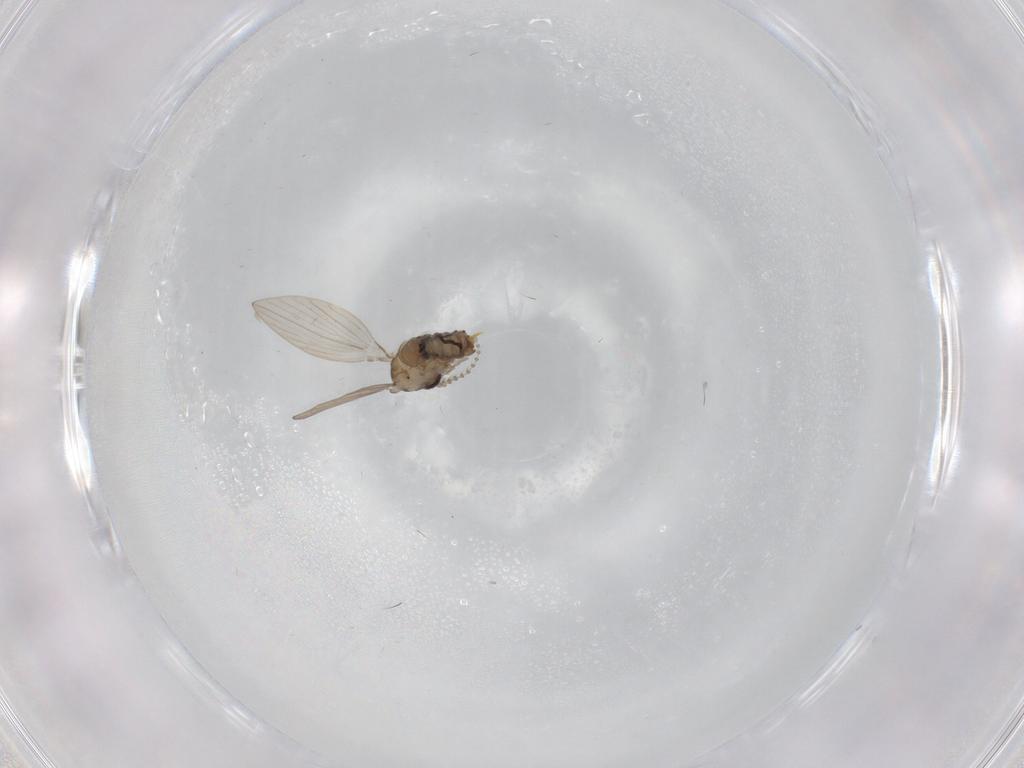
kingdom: Animalia
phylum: Arthropoda
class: Insecta
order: Diptera
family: Psychodidae
